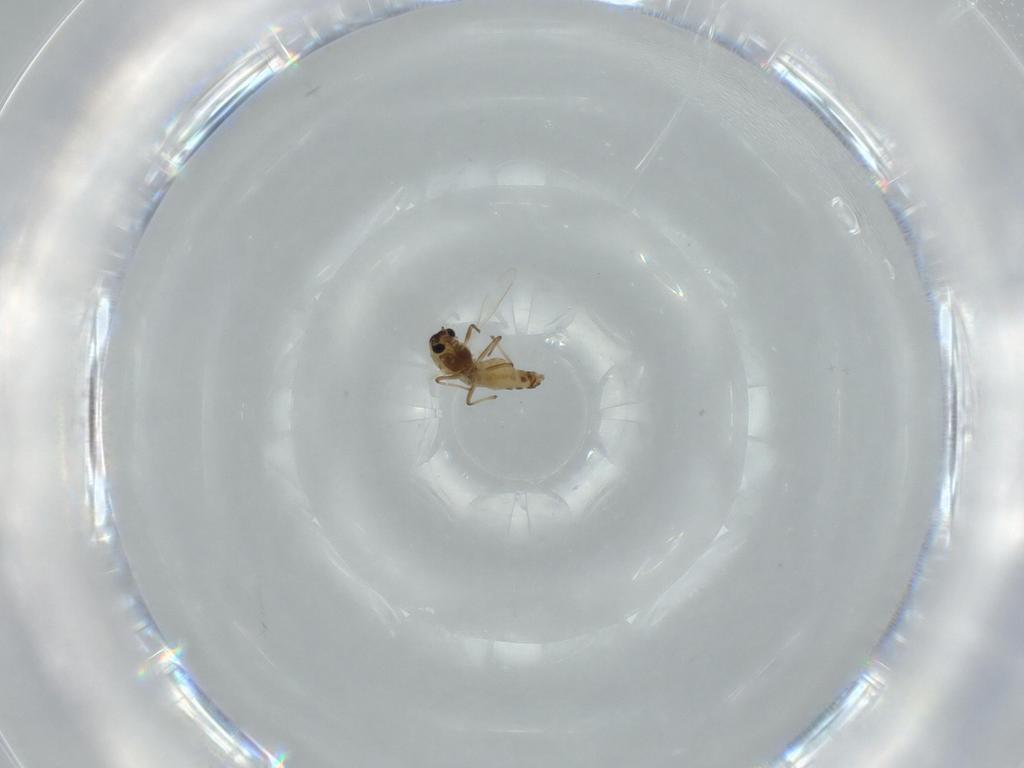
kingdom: Animalia
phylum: Arthropoda
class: Insecta
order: Diptera
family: Chironomidae
